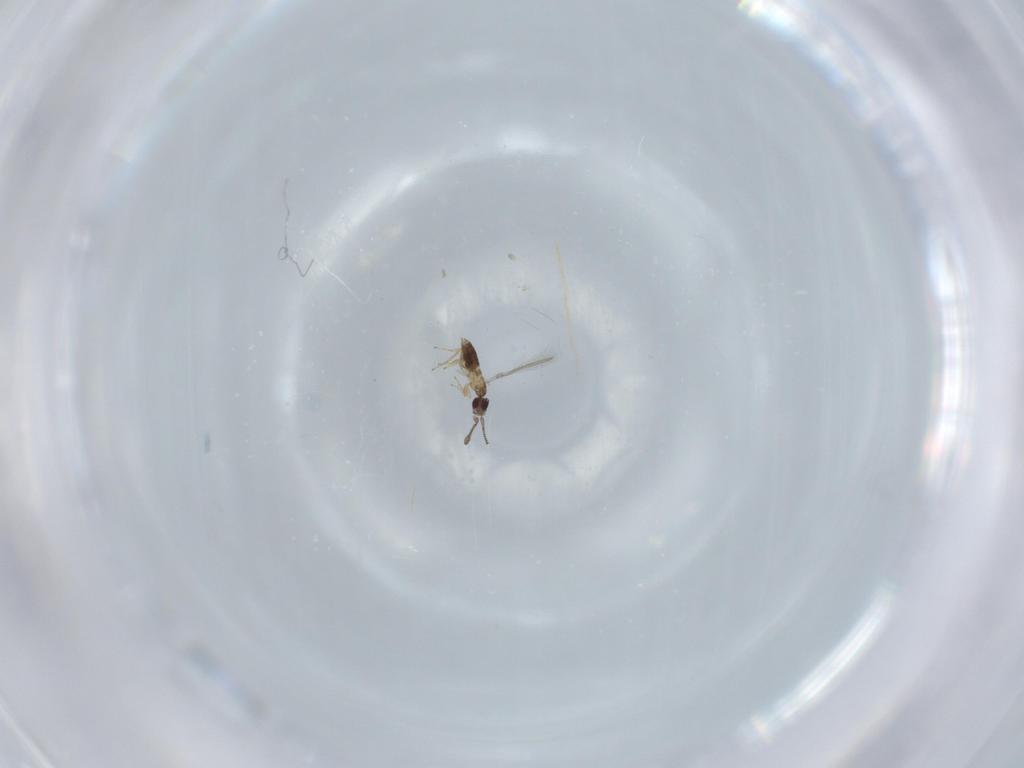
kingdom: Animalia
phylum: Arthropoda
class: Insecta
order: Hymenoptera
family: Mymaridae
